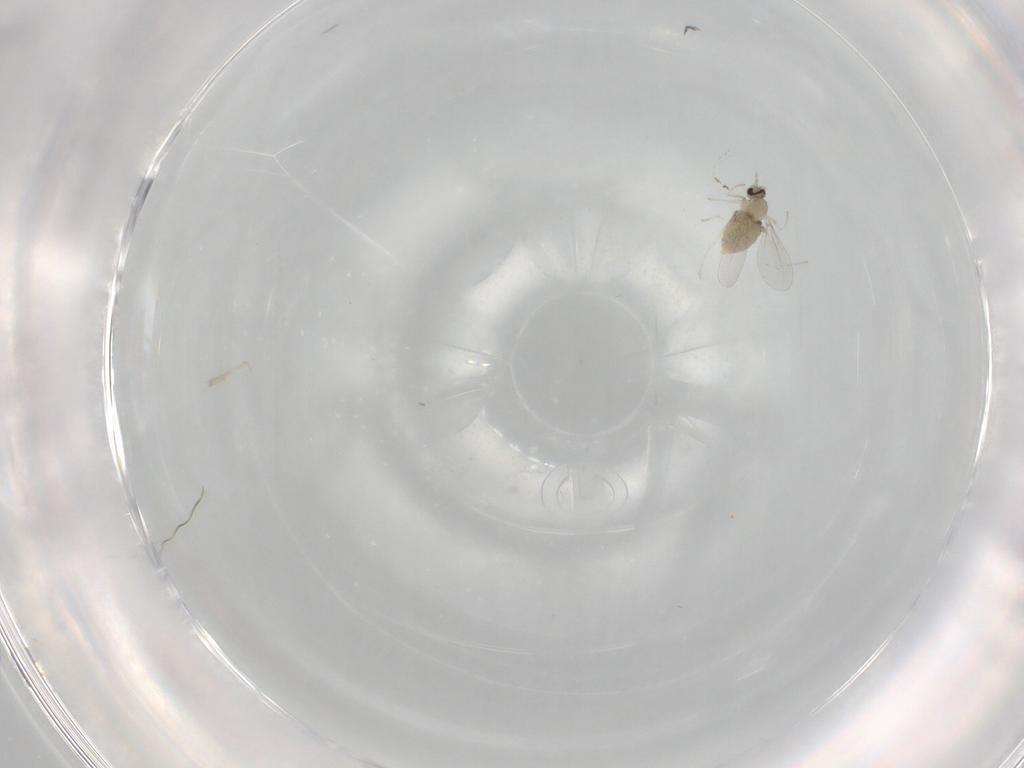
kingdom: Animalia
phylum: Arthropoda
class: Insecta
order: Diptera
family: Cecidomyiidae
